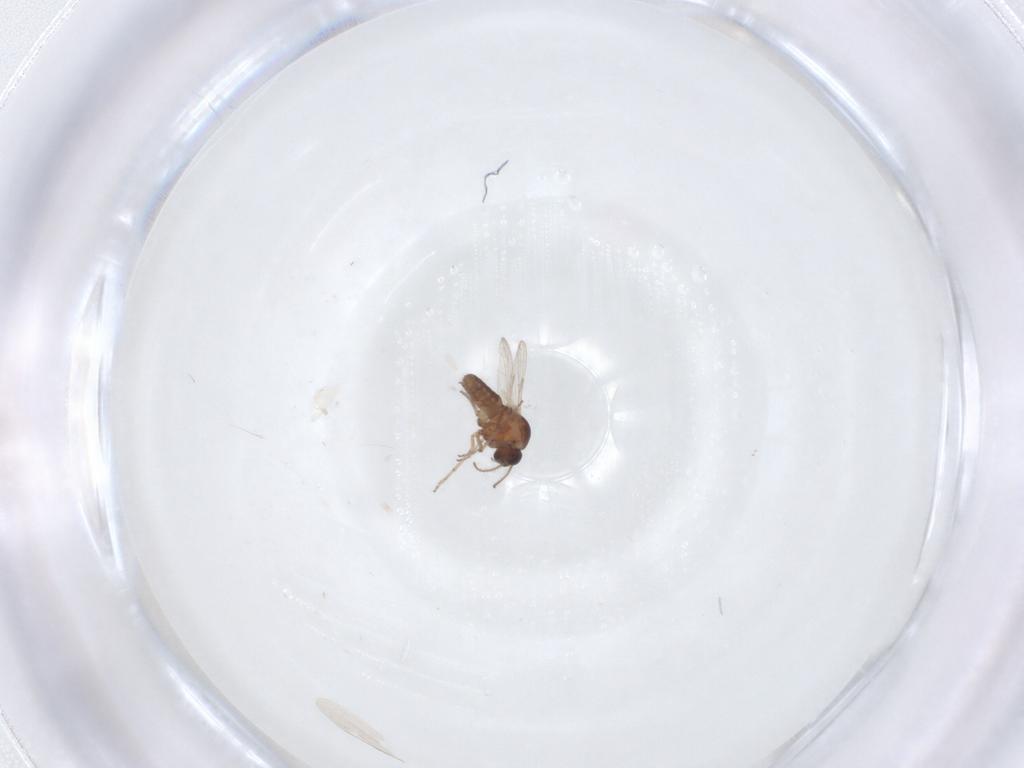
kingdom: Animalia
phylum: Arthropoda
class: Insecta
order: Diptera
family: Ceratopogonidae
